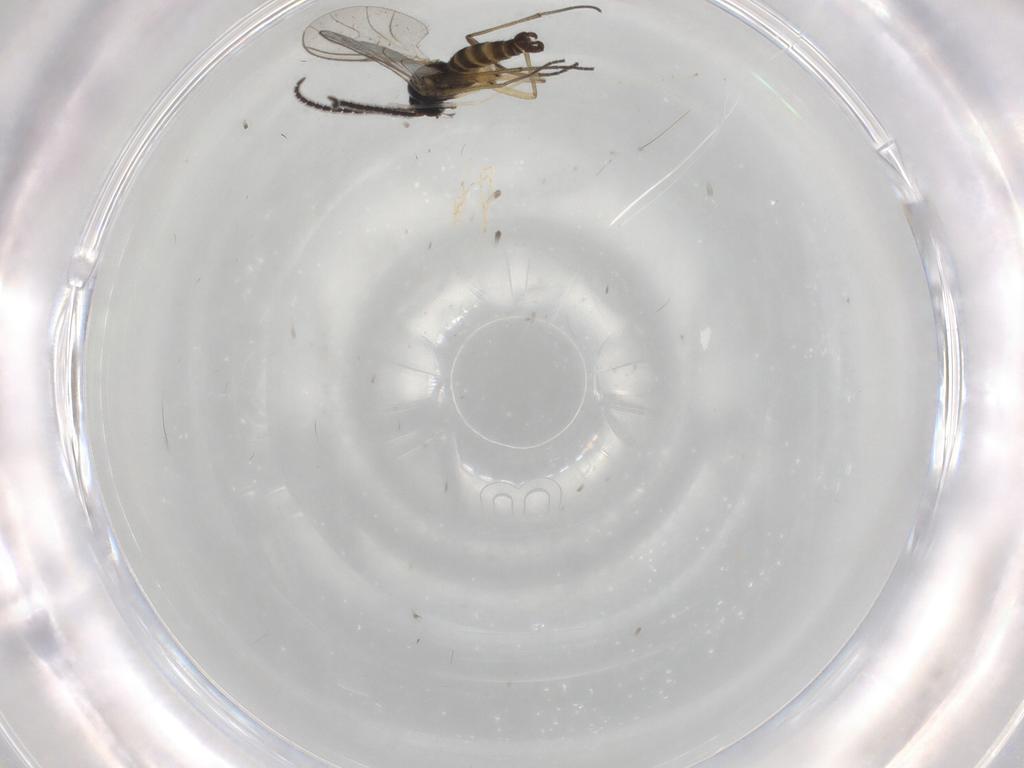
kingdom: Animalia
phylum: Arthropoda
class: Insecta
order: Diptera
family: Sciaridae
